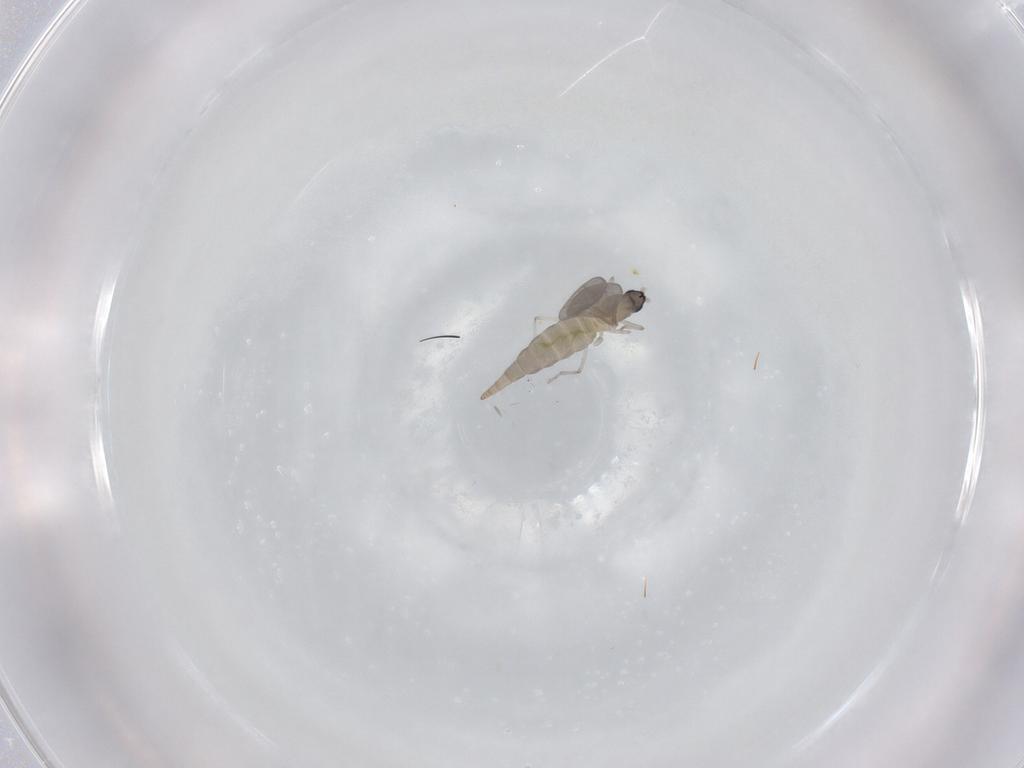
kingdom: Animalia
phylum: Arthropoda
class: Insecta
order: Diptera
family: Cecidomyiidae
